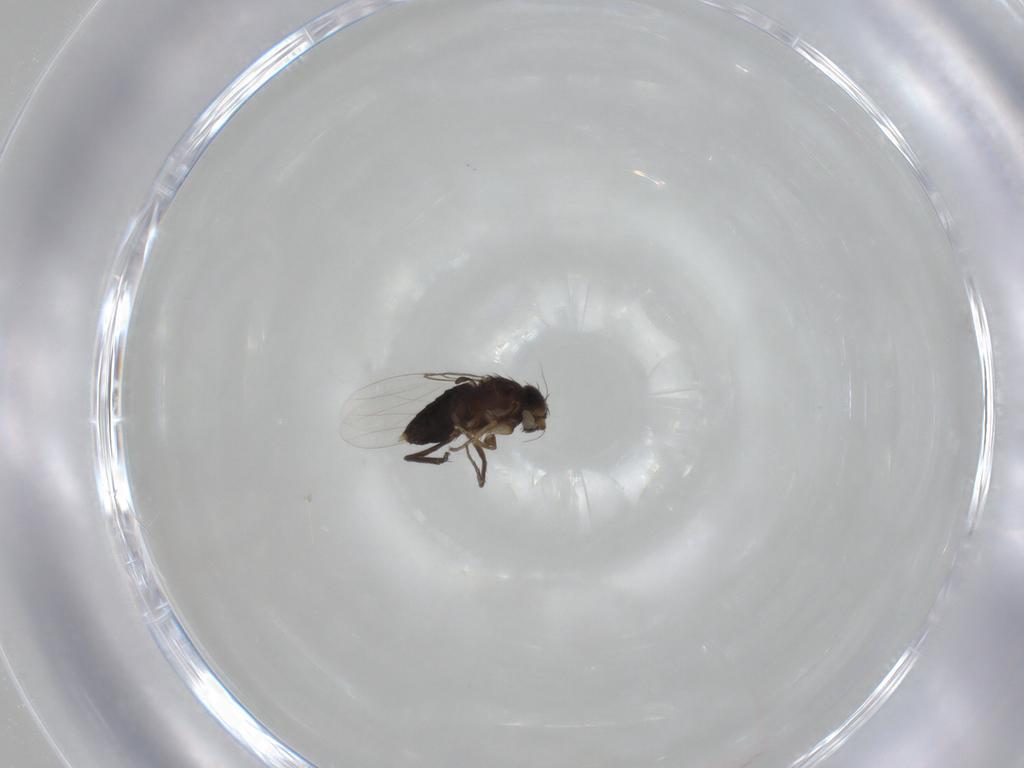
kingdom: Animalia
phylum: Arthropoda
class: Insecta
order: Diptera
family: Phoridae
